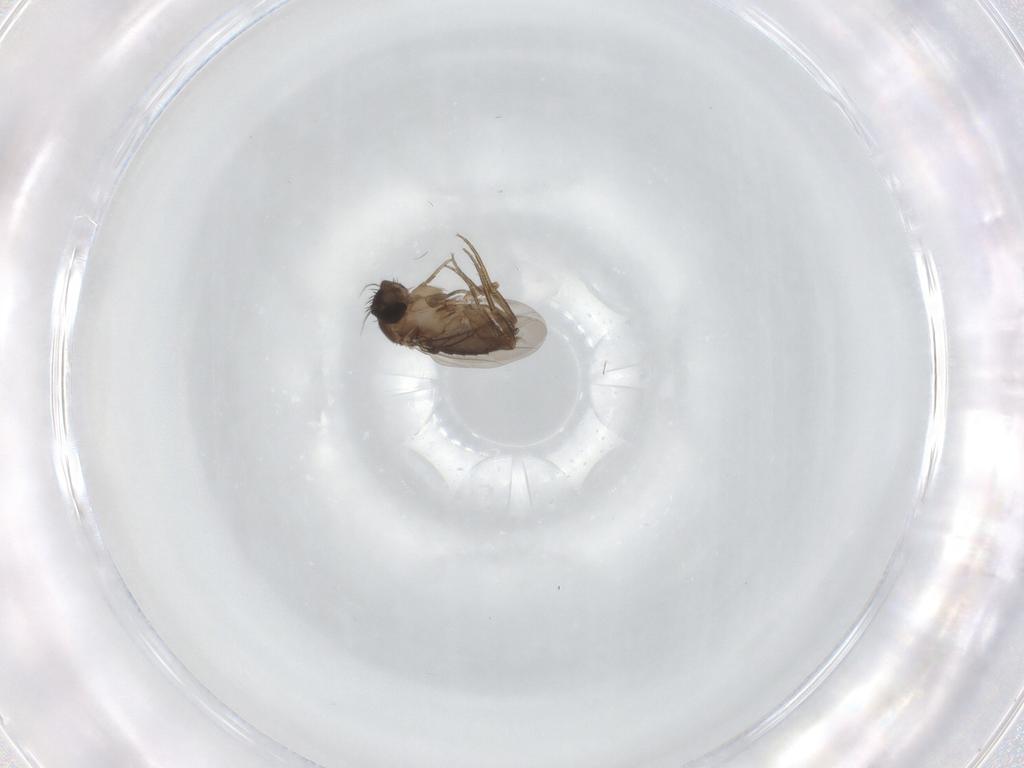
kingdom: Animalia
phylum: Arthropoda
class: Insecta
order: Diptera
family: Phoridae
